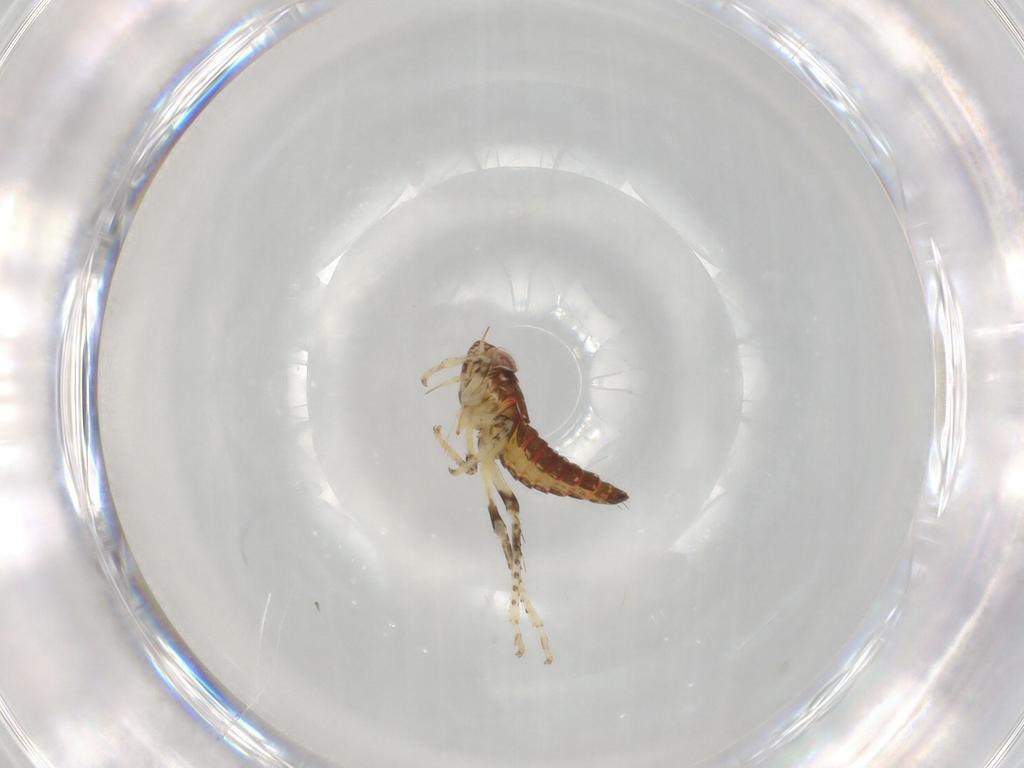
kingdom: Animalia
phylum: Arthropoda
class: Insecta
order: Hemiptera
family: Cicadellidae
